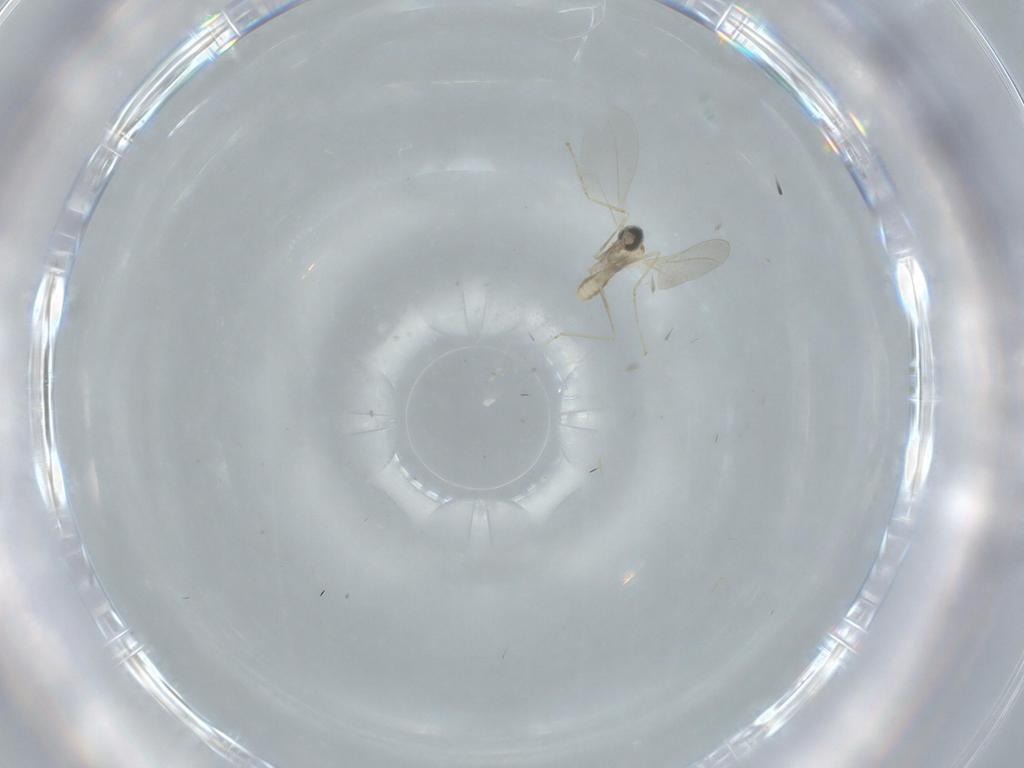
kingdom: Animalia
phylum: Arthropoda
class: Insecta
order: Diptera
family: Cecidomyiidae
